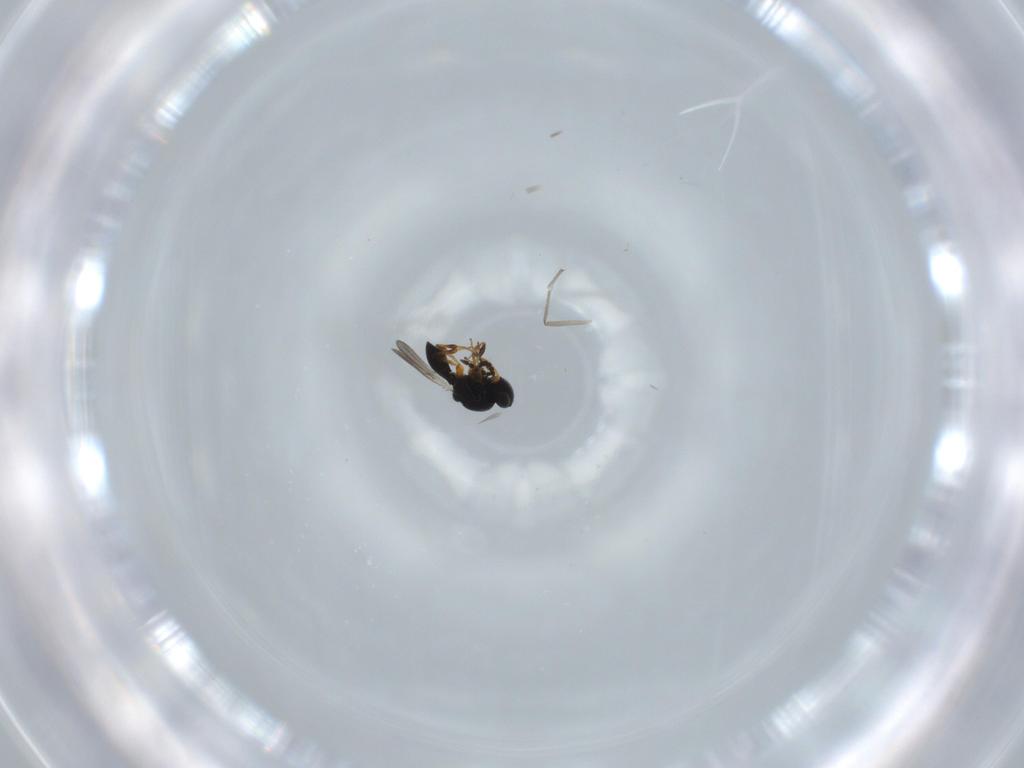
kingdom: Animalia
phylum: Arthropoda
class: Insecta
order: Hymenoptera
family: Platygastridae
